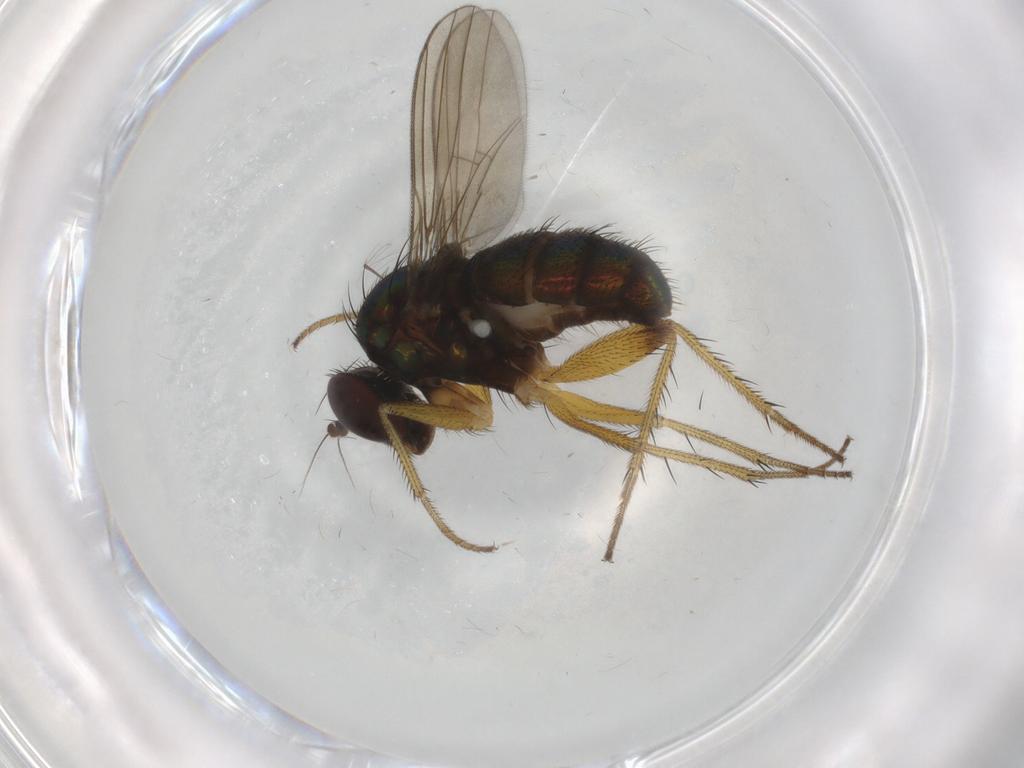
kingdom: Animalia
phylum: Arthropoda
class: Insecta
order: Diptera
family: Dolichopodidae
